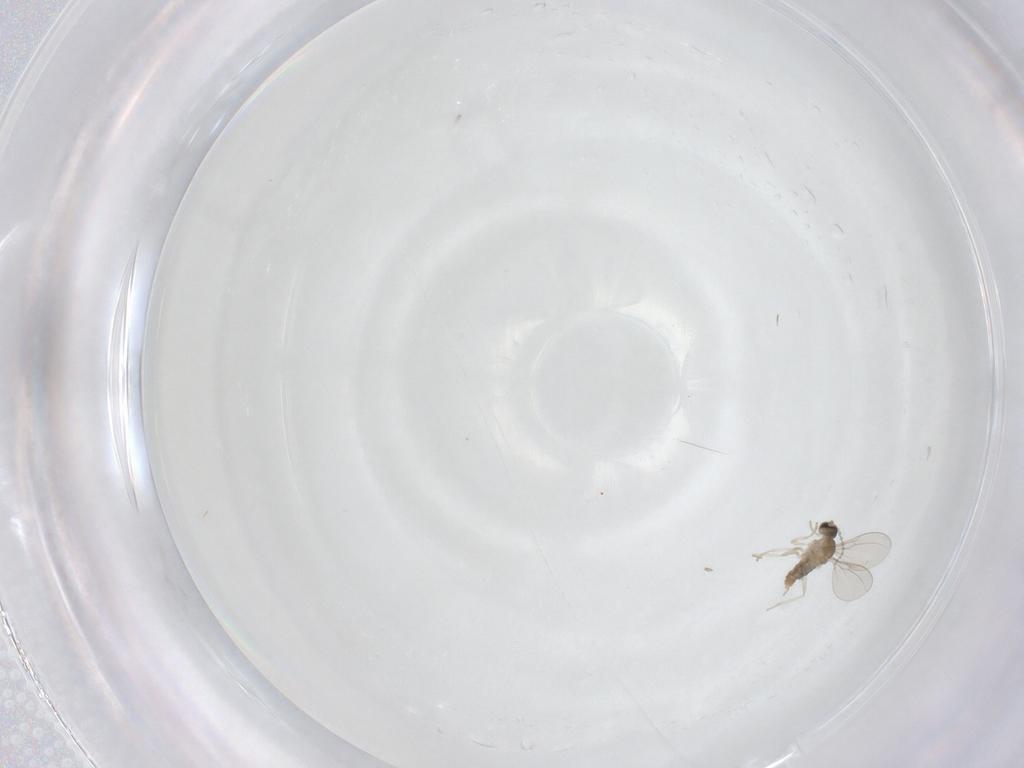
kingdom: Animalia
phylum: Arthropoda
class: Insecta
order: Diptera
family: Cecidomyiidae
